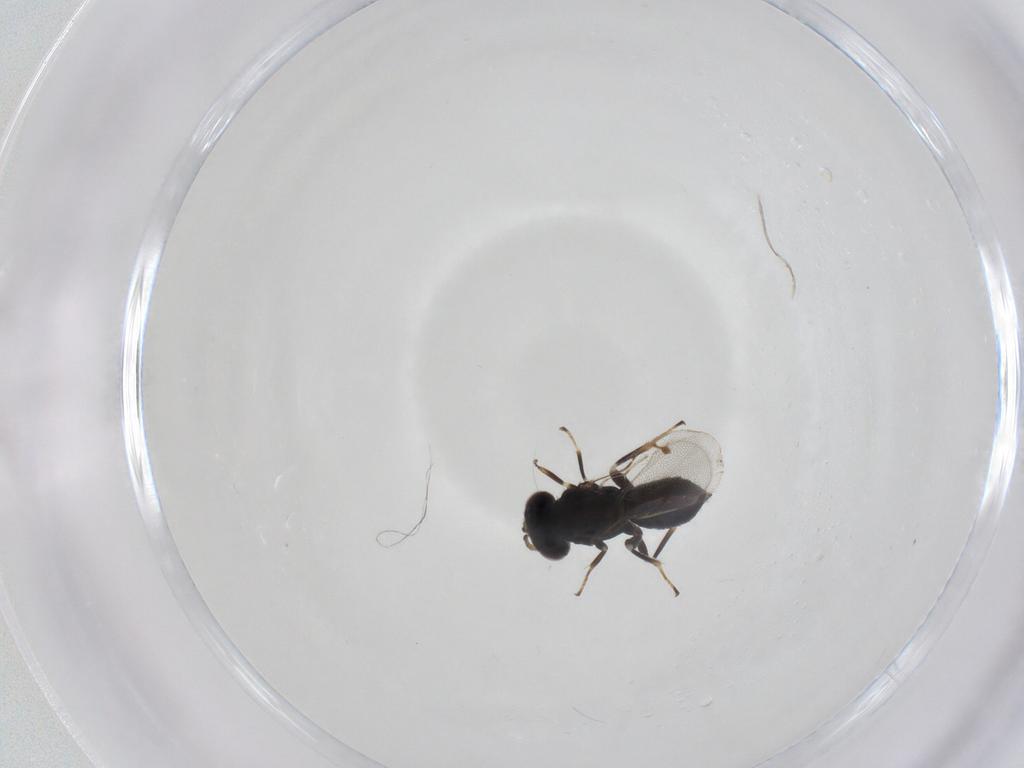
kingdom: Animalia
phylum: Arthropoda
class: Insecta
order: Hymenoptera
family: Pirenidae
